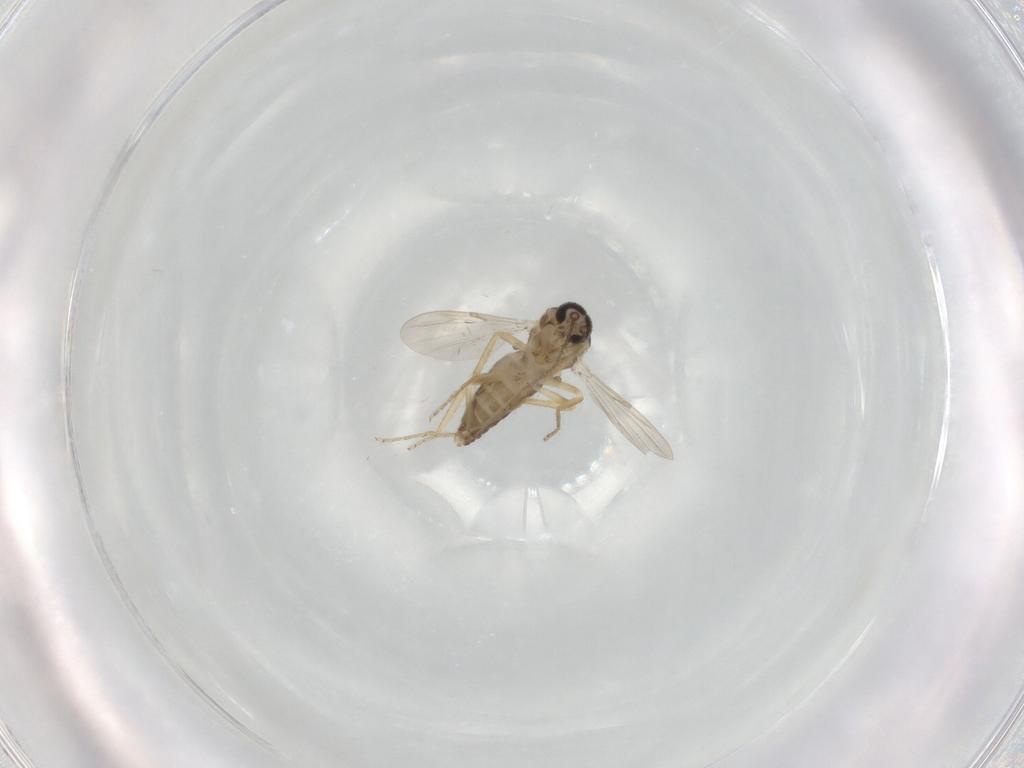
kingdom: Animalia
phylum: Arthropoda
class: Insecta
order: Diptera
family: Ceratopogonidae
